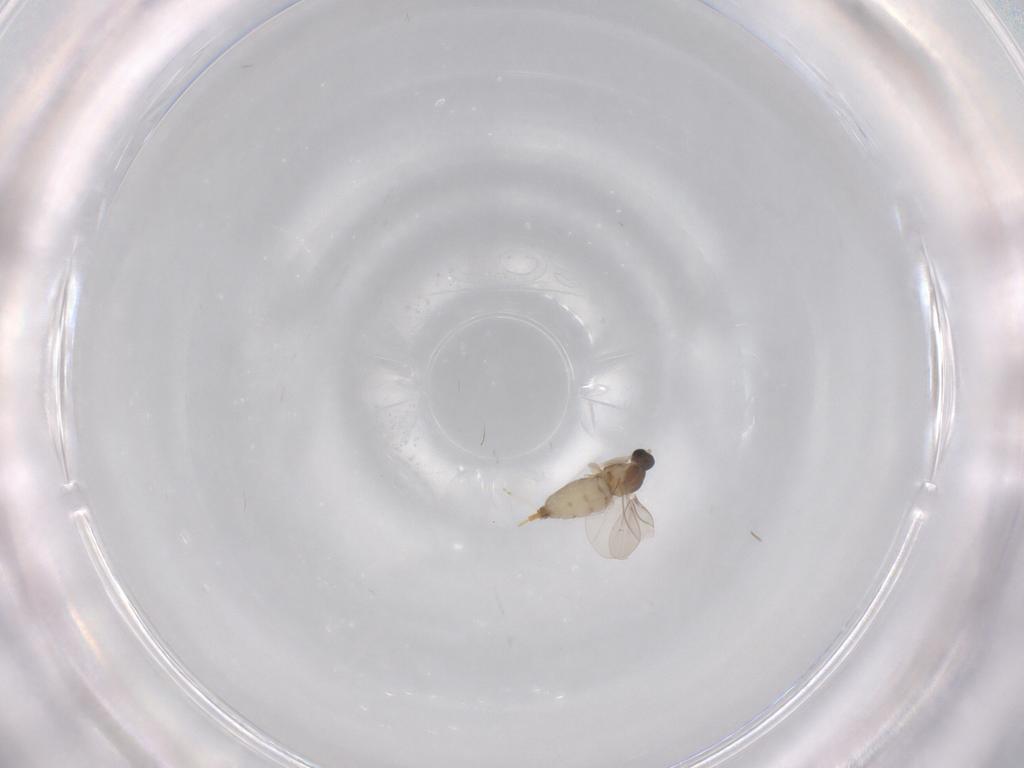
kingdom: Animalia
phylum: Arthropoda
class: Insecta
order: Diptera
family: Cecidomyiidae
